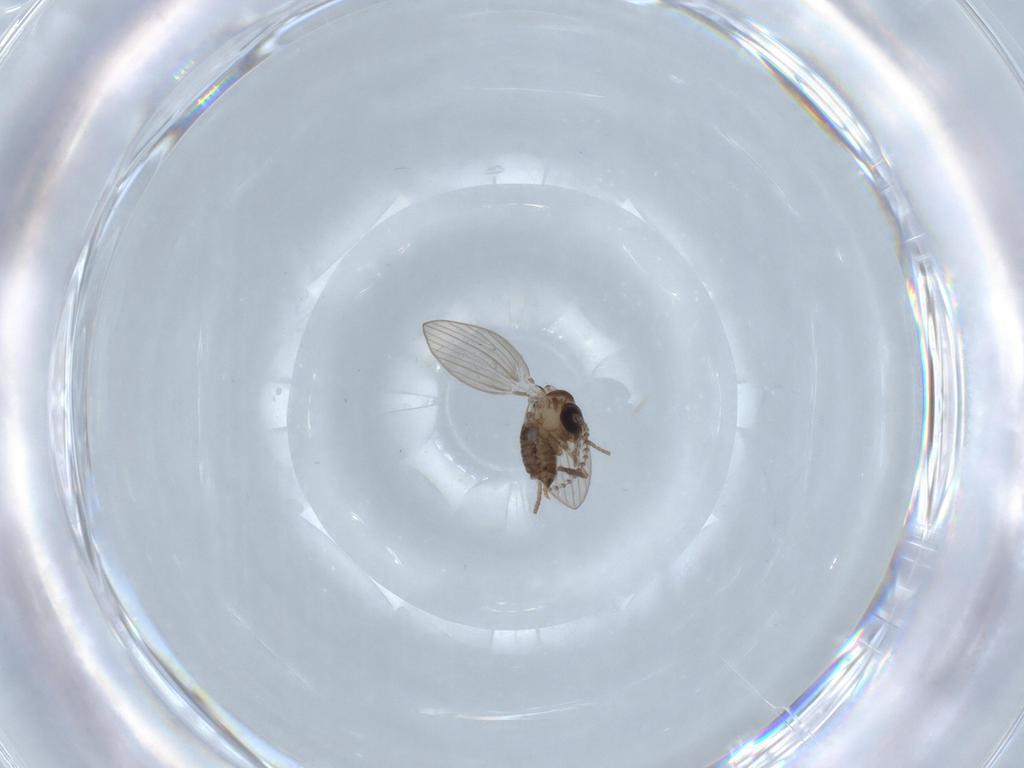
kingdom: Animalia
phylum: Arthropoda
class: Insecta
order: Diptera
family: Psychodidae
